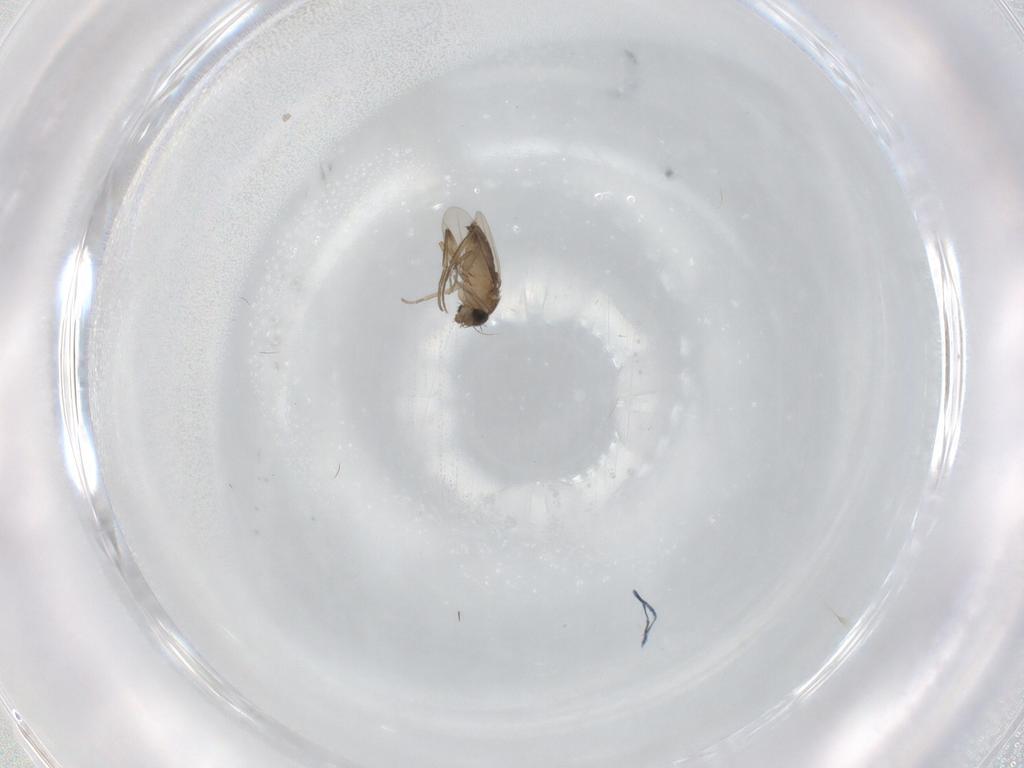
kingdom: Animalia
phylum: Arthropoda
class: Insecta
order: Diptera
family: Phoridae
